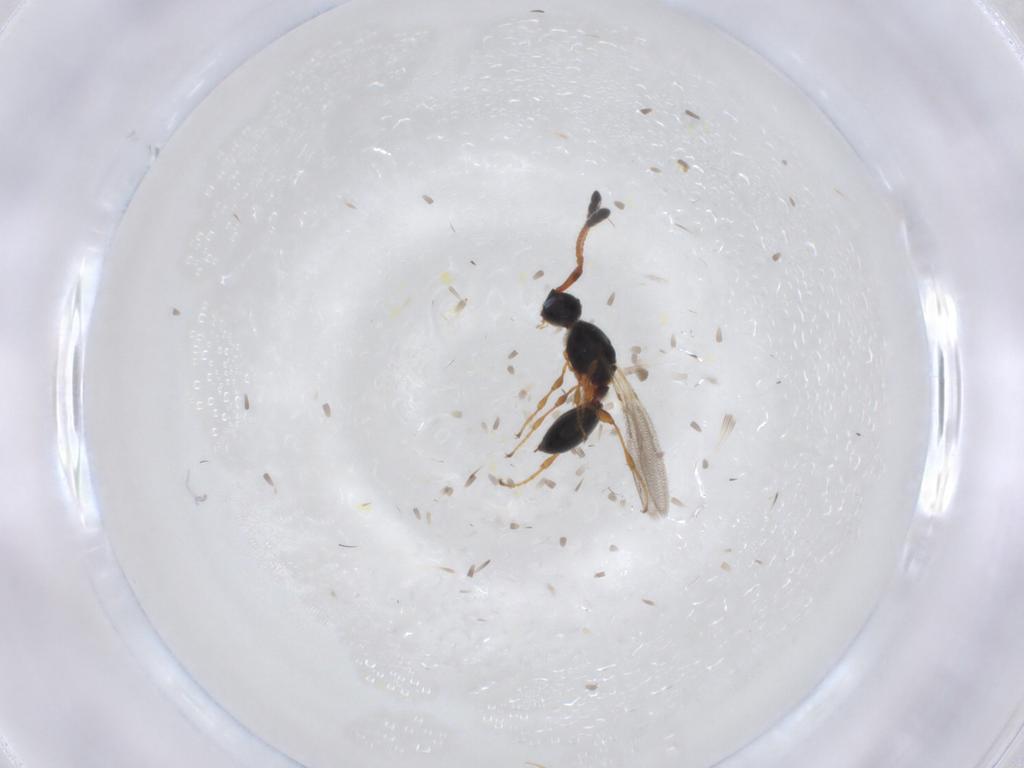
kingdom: Animalia
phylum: Arthropoda
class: Insecta
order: Hymenoptera
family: Diapriidae
